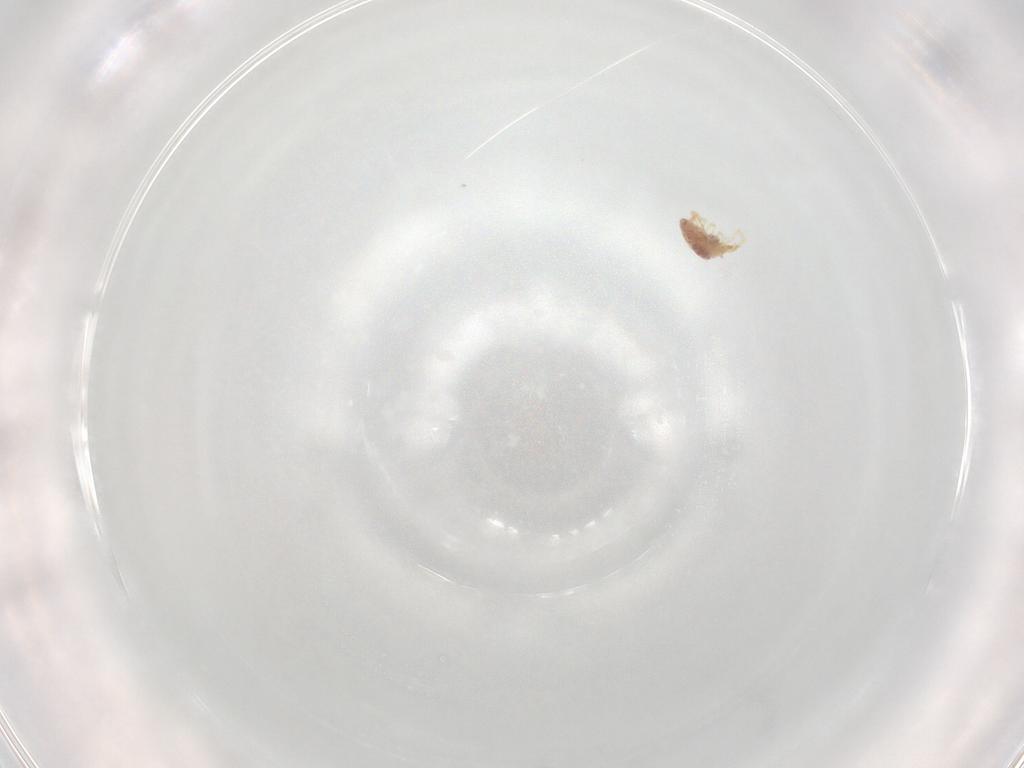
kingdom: Animalia
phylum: Arthropoda
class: Arachnida
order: Trombidiformes
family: Erythraeidae
